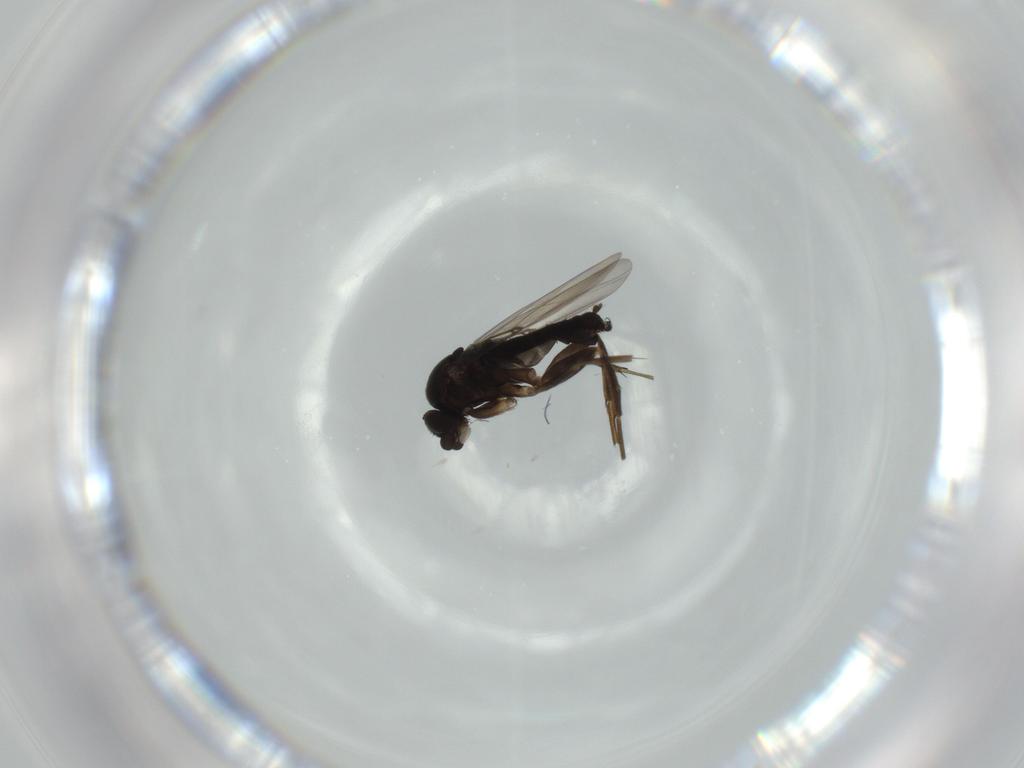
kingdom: Animalia
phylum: Arthropoda
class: Insecta
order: Diptera
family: Phoridae
